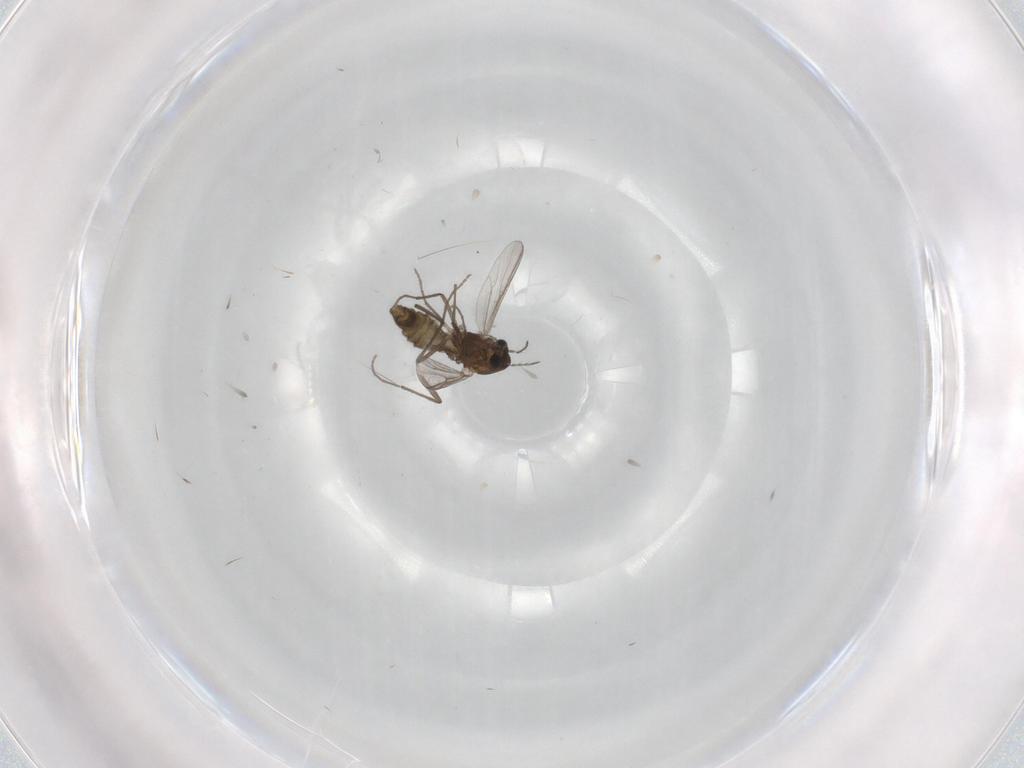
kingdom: Animalia
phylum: Arthropoda
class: Insecta
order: Diptera
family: Chironomidae
